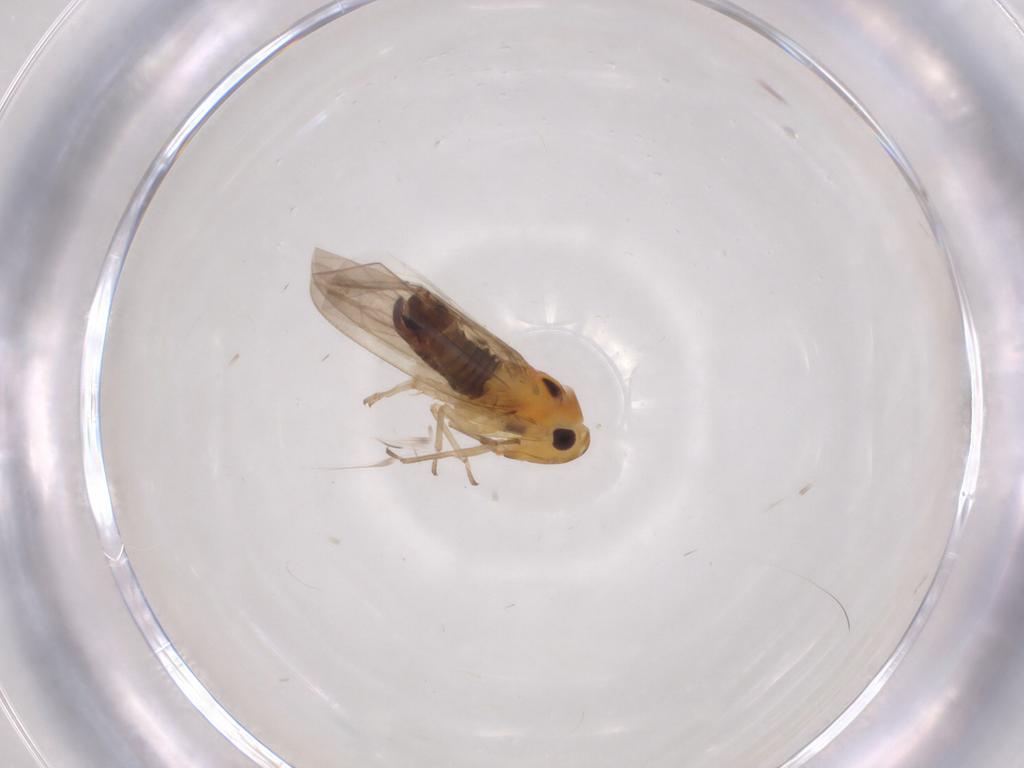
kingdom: Animalia
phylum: Arthropoda
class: Insecta
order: Hemiptera
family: Cicadellidae
